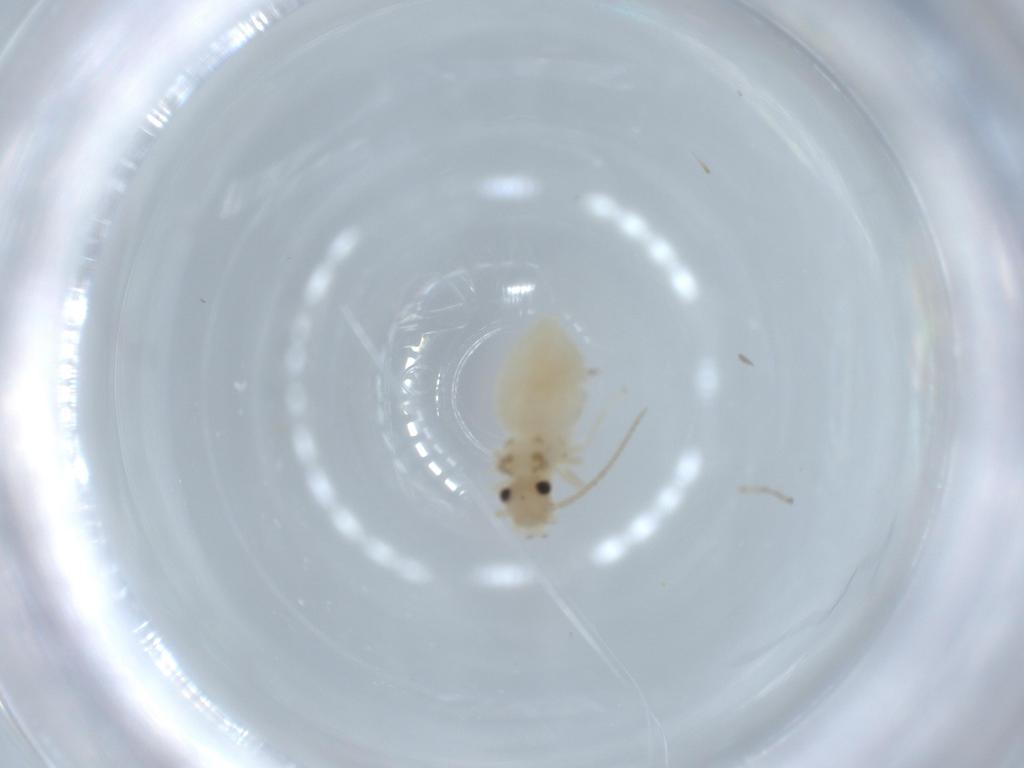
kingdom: Animalia
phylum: Arthropoda
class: Insecta
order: Psocodea
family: Caeciliusidae
